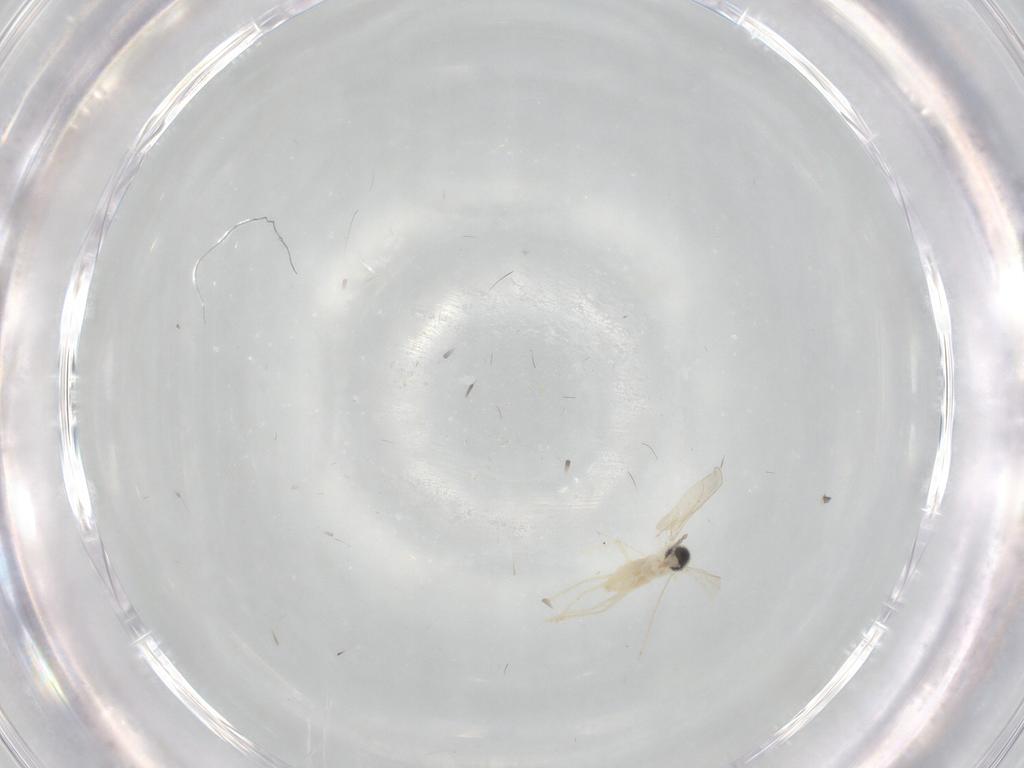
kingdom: Animalia
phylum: Arthropoda
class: Insecta
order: Diptera
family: Cecidomyiidae
